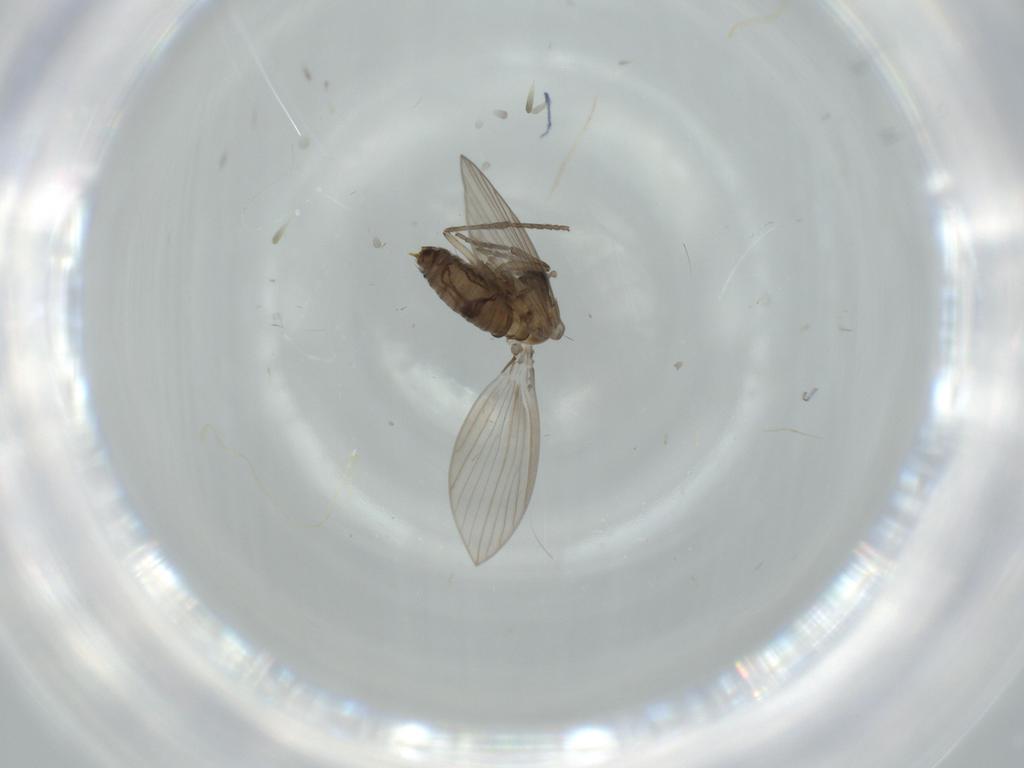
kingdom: Animalia
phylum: Arthropoda
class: Insecta
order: Diptera
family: Psychodidae
